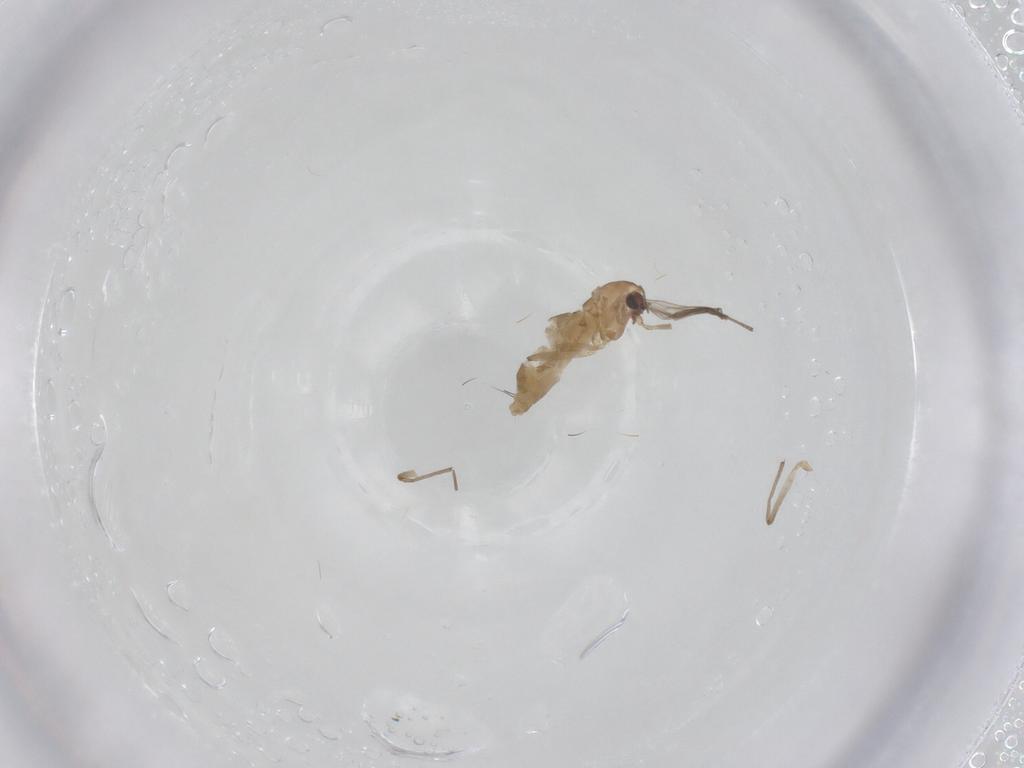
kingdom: Animalia
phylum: Arthropoda
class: Insecta
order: Diptera
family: Chironomidae
